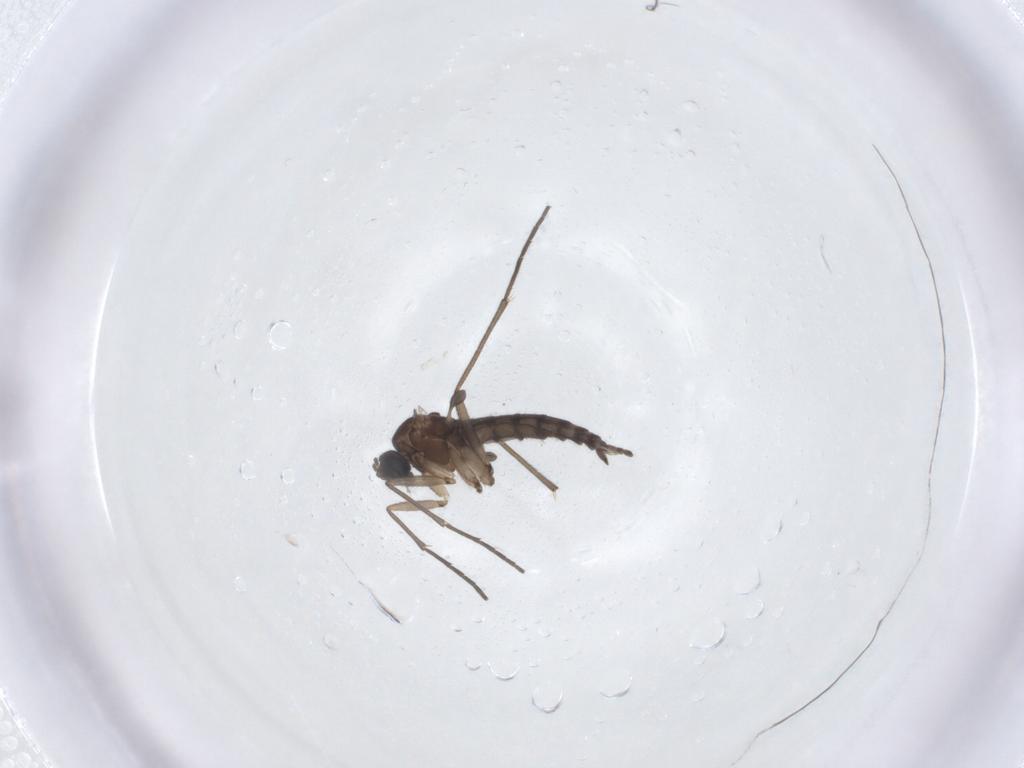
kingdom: Animalia
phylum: Arthropoda
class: Insecta
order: Diptera
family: Sciaridae
